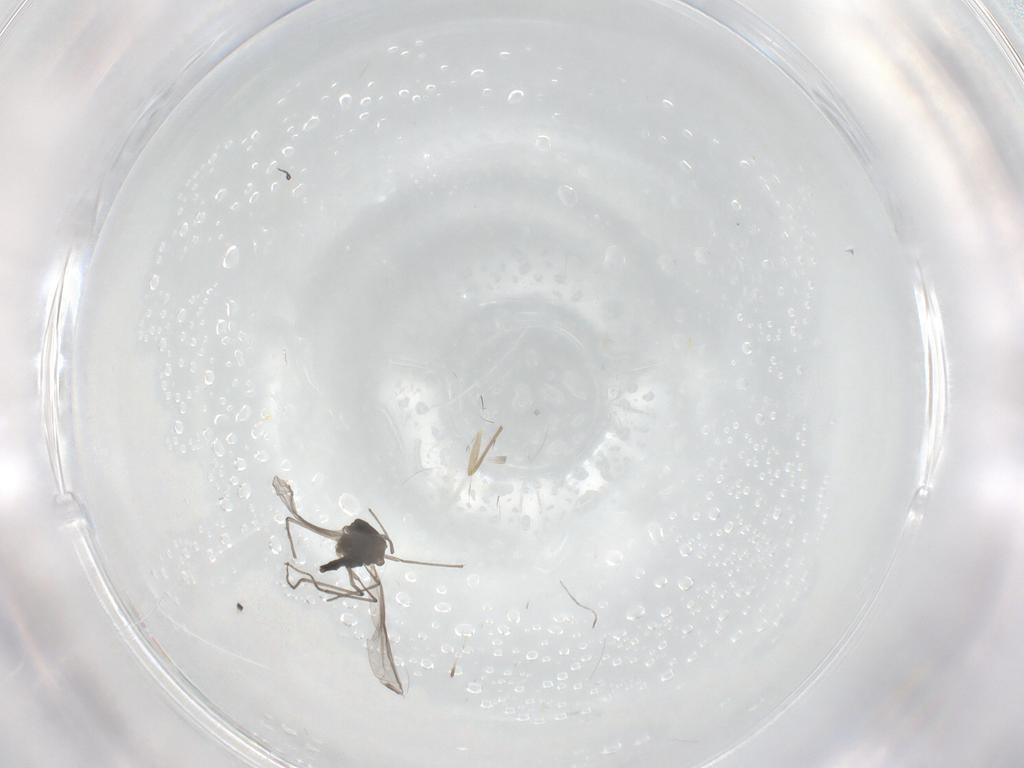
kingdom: Animalia
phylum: Arthropoda
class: Insecta
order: Diptera
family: Chironomidae
